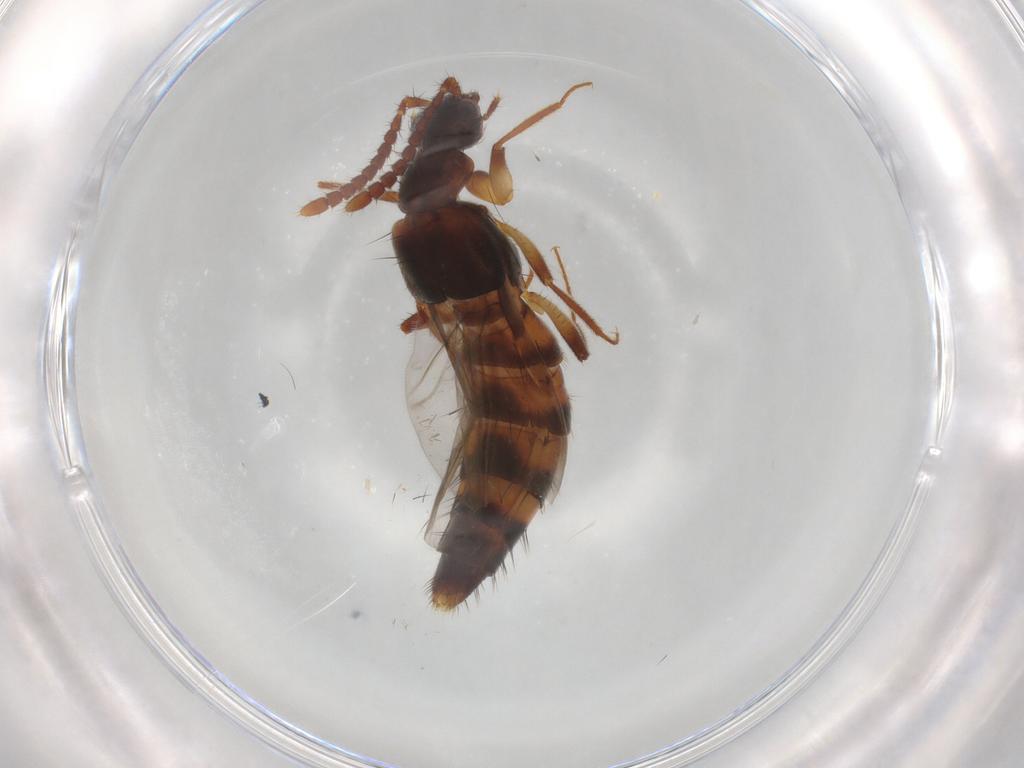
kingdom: Animalia
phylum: Arthropoda
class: Insecta
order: Coleoptera
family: Staphylinidae
